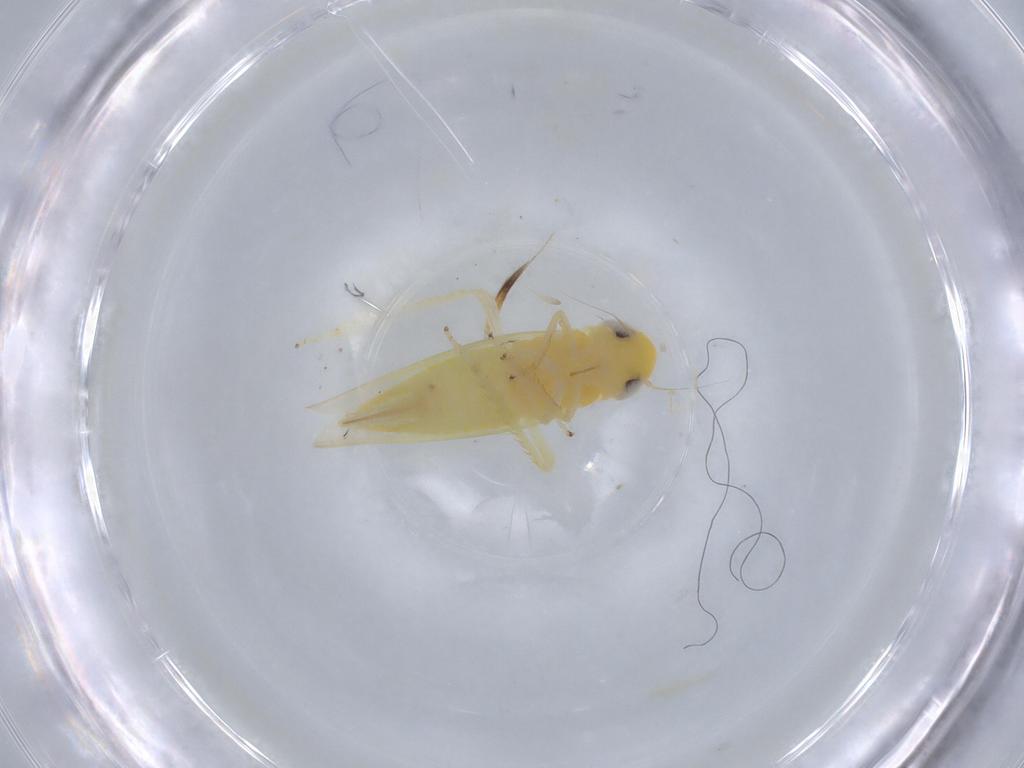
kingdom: Animalia
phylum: Arthropoda
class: Insecta
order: Hemiptera
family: Cicadellidae
